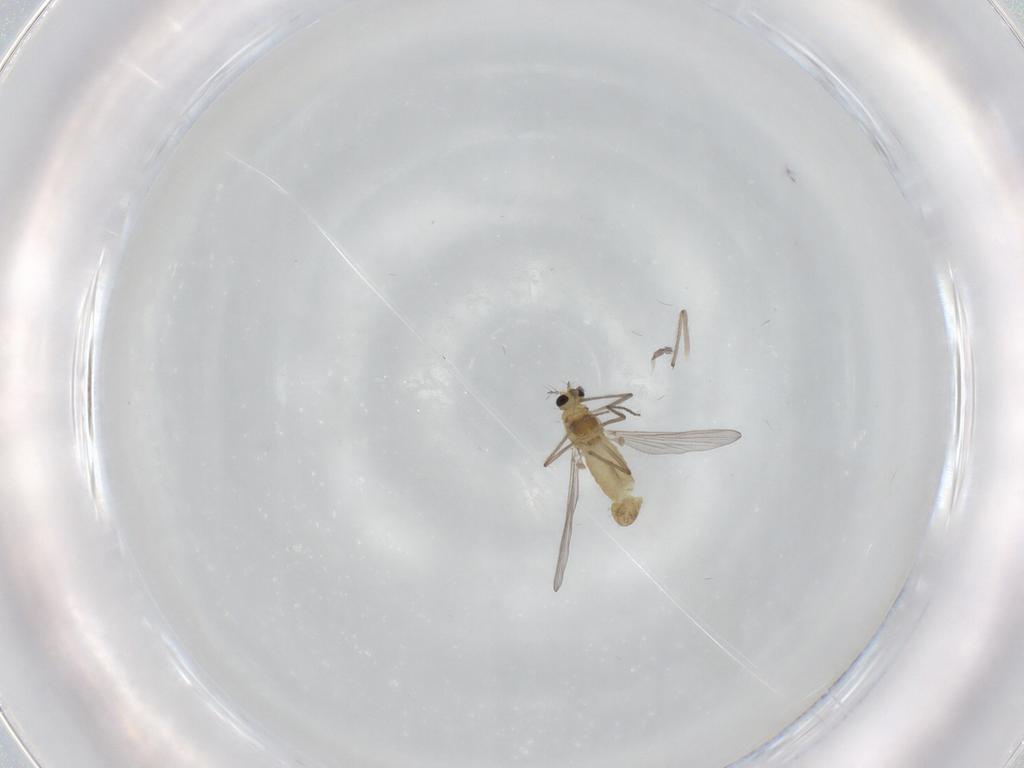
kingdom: Animalia
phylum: Arthropoda
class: Insecta
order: Diptera
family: Chironomidae
